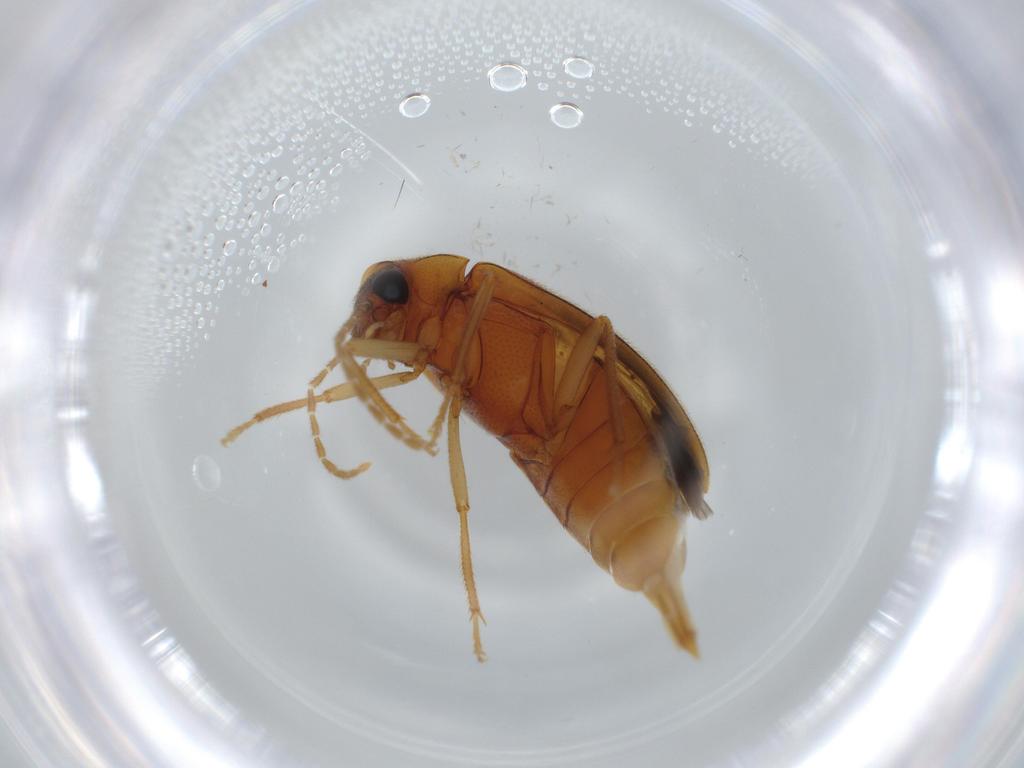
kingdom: Animalia
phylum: Arthropoda
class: Insecta
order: Coleoptera
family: Ptilodactylidae
